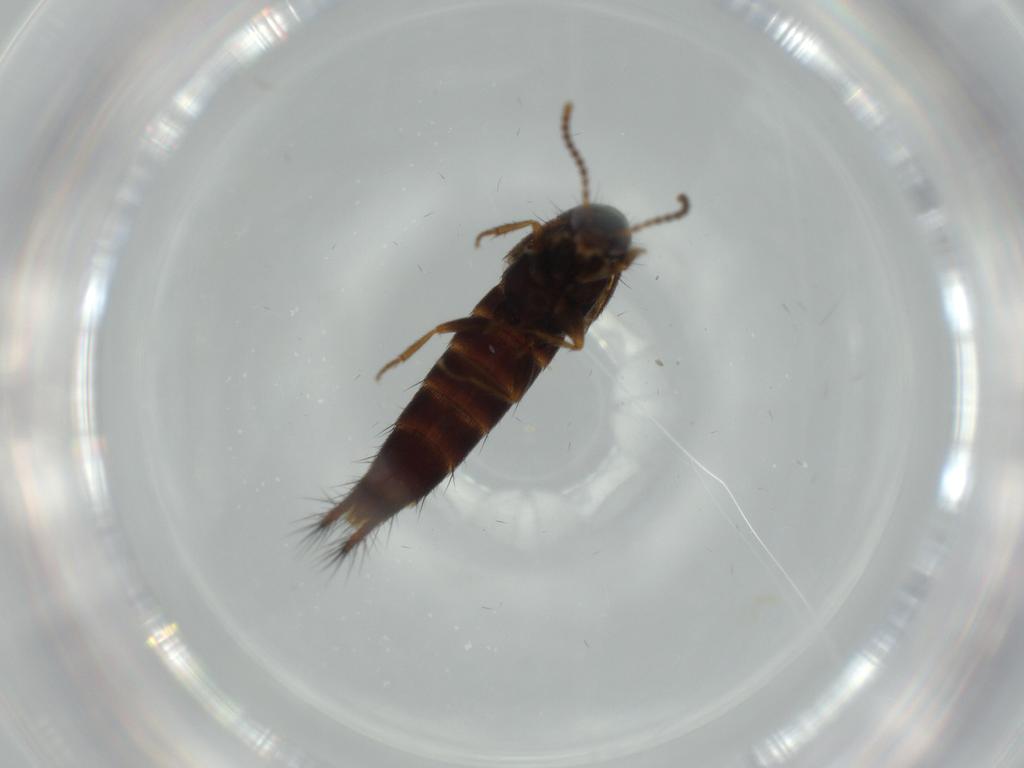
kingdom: Animalia
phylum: Arthropoda
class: Insecta
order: Coleoptera
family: Staphylinidae
